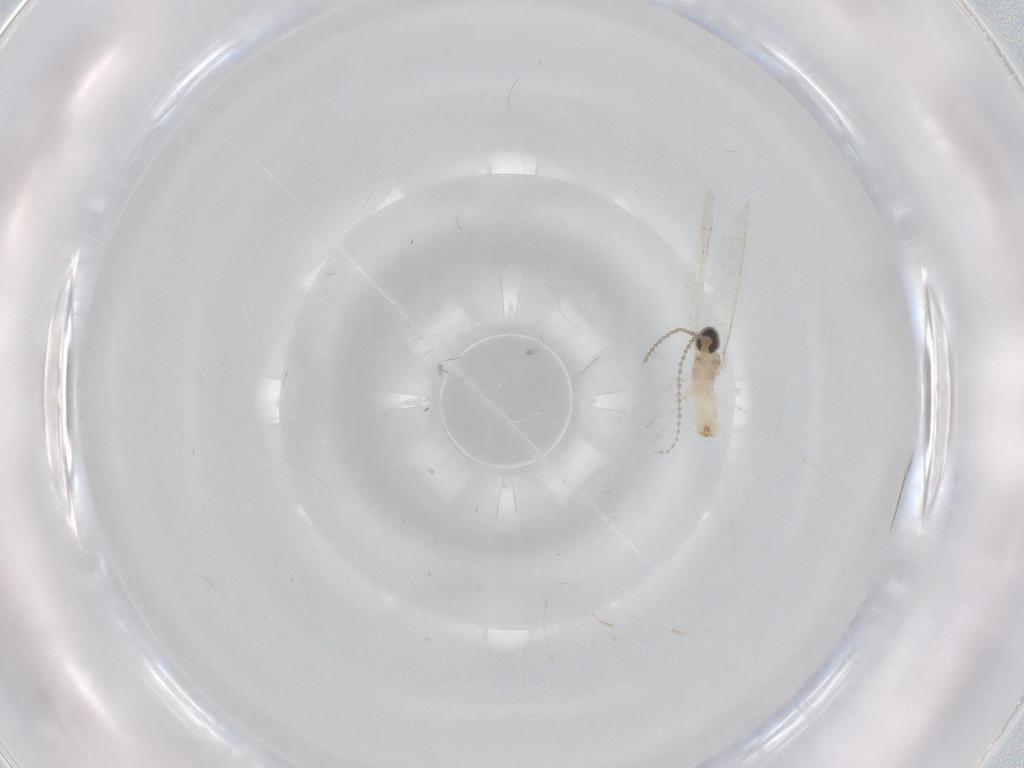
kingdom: Animalia
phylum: Arthropoda
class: Insecta
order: Diptera
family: Cecidomyiidae
